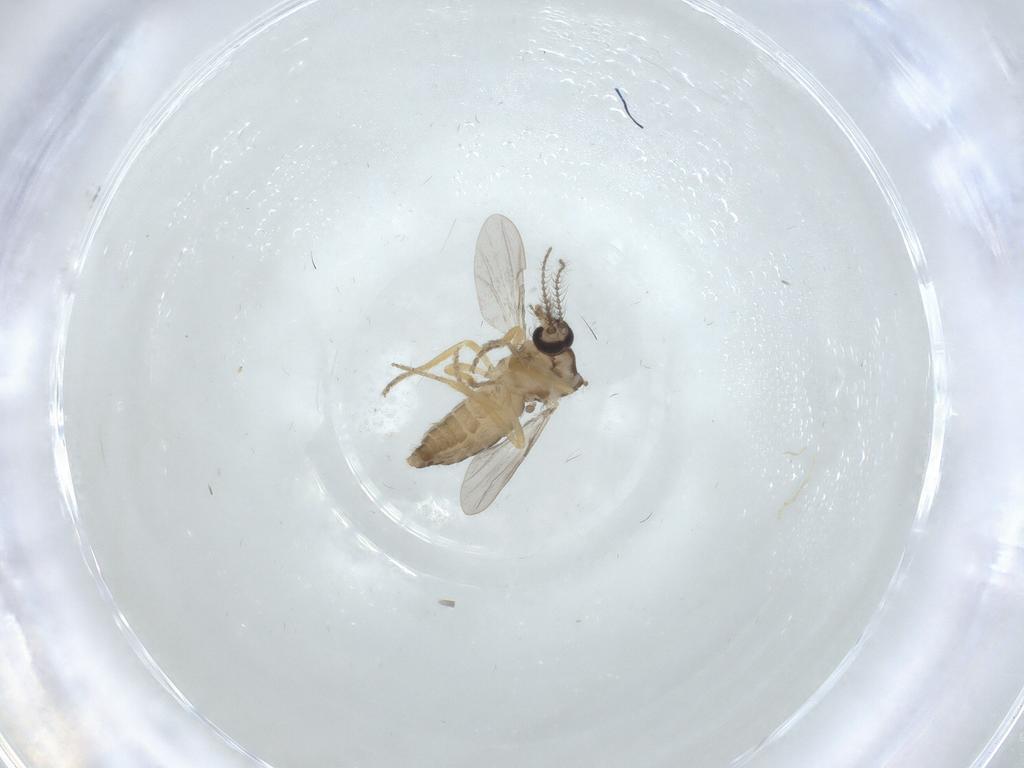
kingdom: Animalia
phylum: Arthropoda
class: Insecta
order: Diptera
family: Ceratopogonidae
